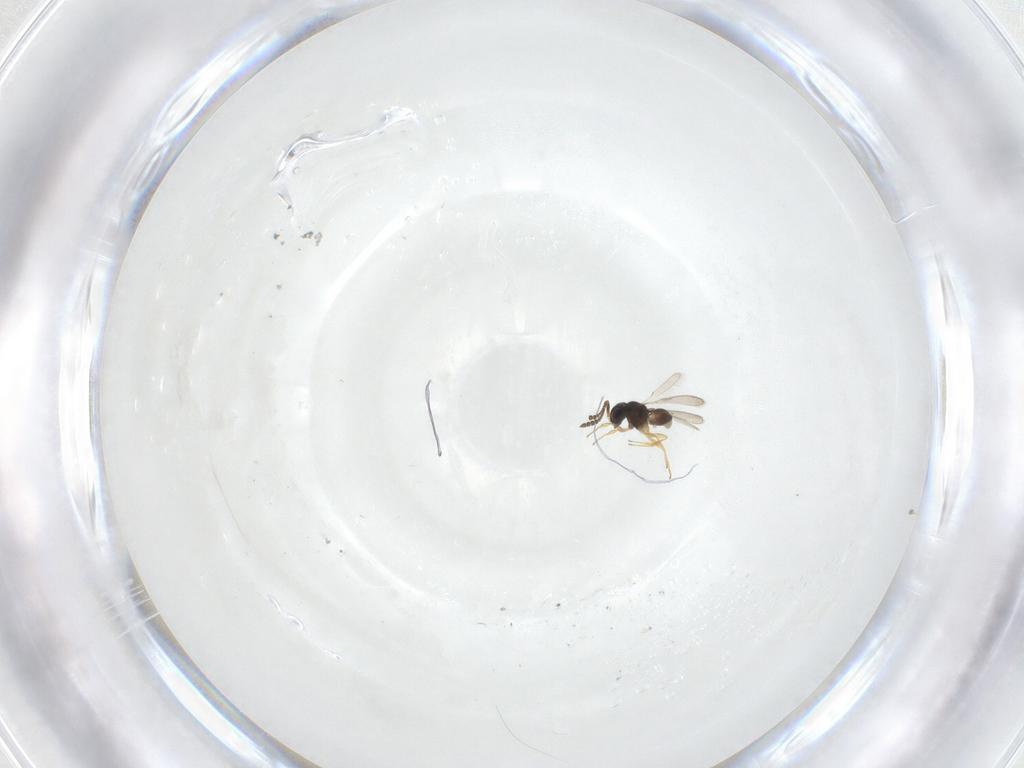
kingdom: Animalia
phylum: Arthropoda
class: Insecta
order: Hymenoptera
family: Scelionidae
